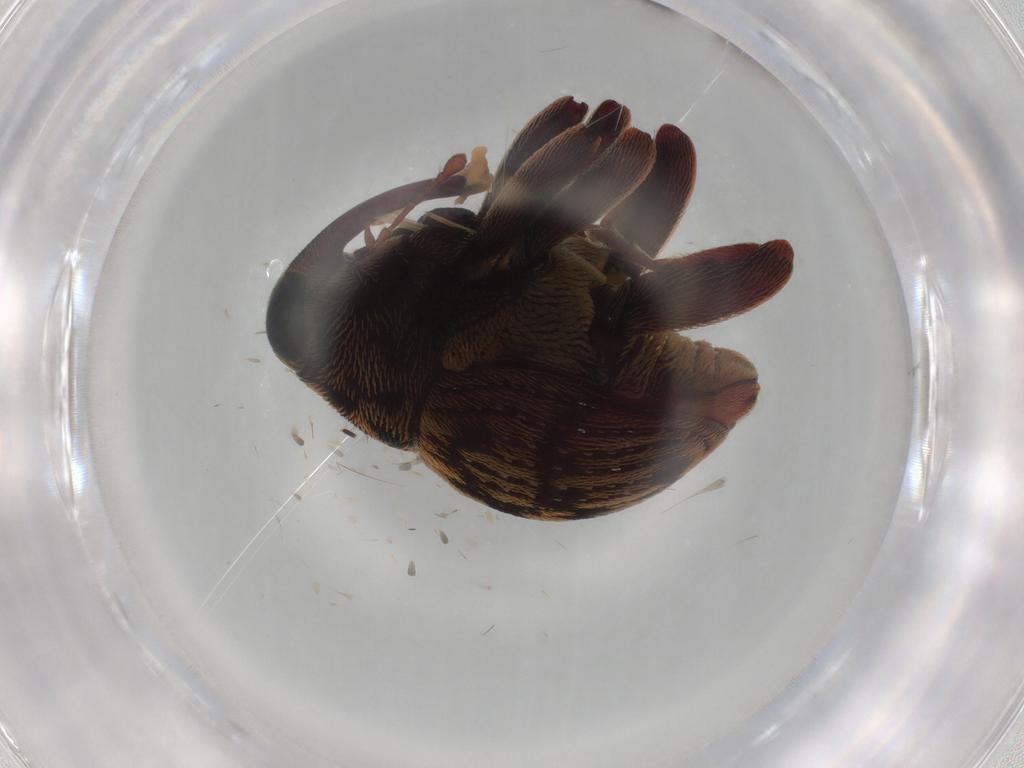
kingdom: Animalia
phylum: Arthropoda
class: Insecta
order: Coleoptera
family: Curculionidae
